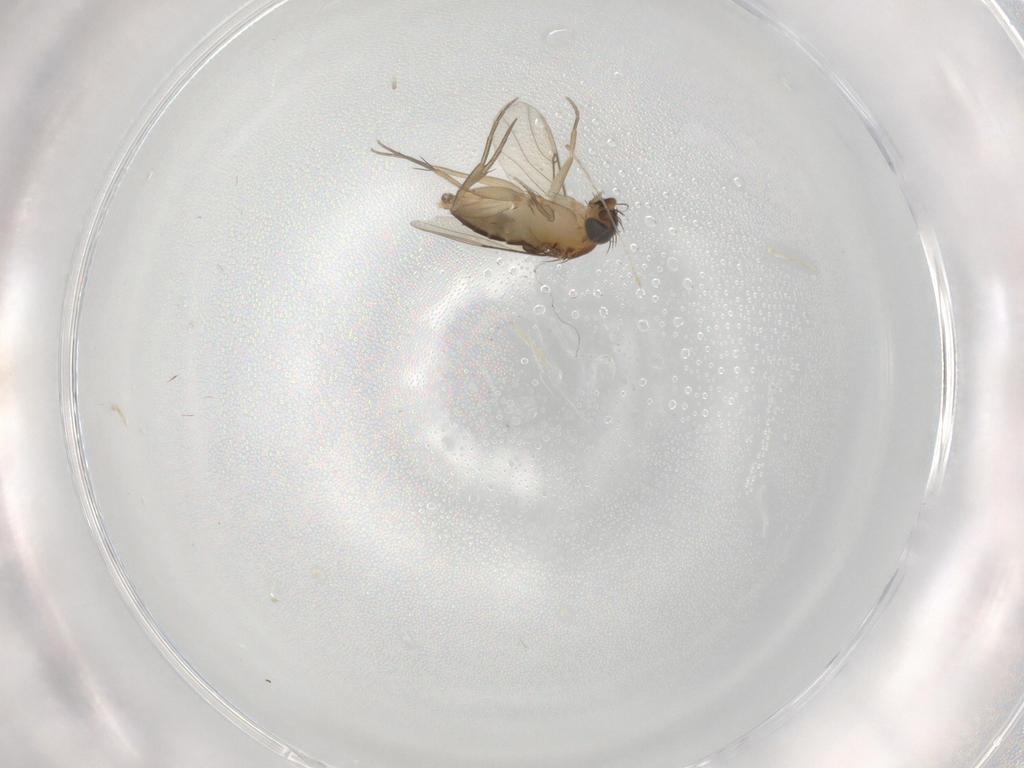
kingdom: Animalia
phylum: Arthropoda
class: Insecta
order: Diptera
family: Phoridae
